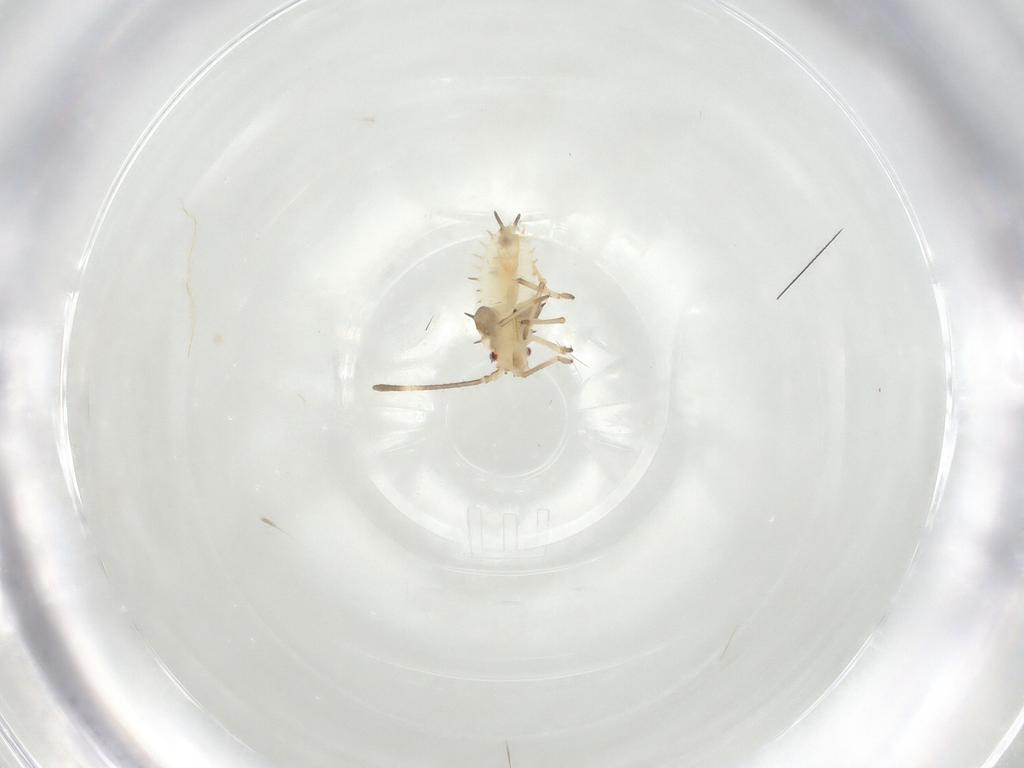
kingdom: Animalia
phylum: Arthropoda
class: Insecta
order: Hemiptera
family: Cicadellidae
